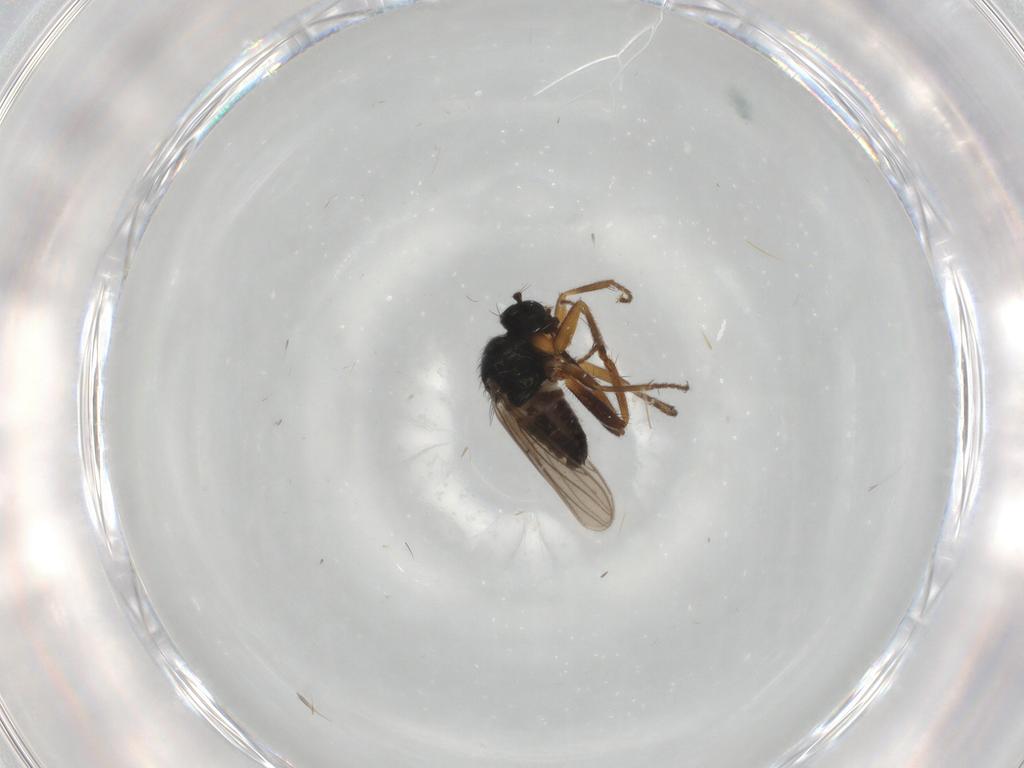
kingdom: Animalia
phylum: Arthropoda
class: Insecta
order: Diptera
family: Hybotidae
